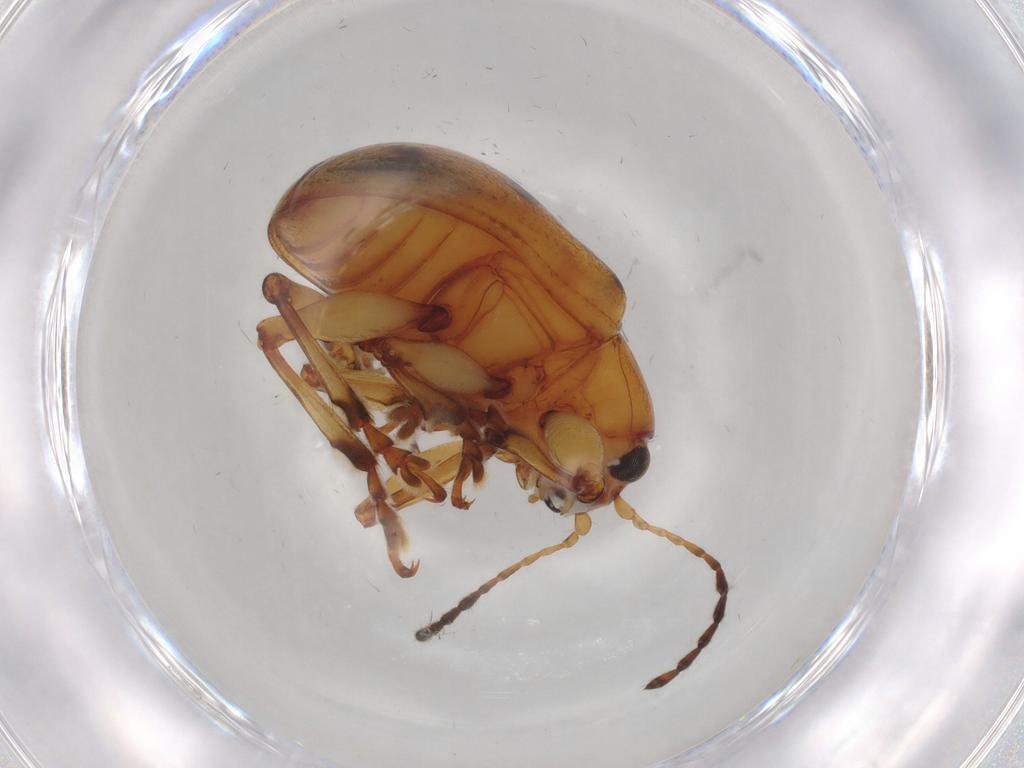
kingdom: Animalia
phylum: Arthropoda
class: Insecta
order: Coleoptera
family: Chrysomelidae
